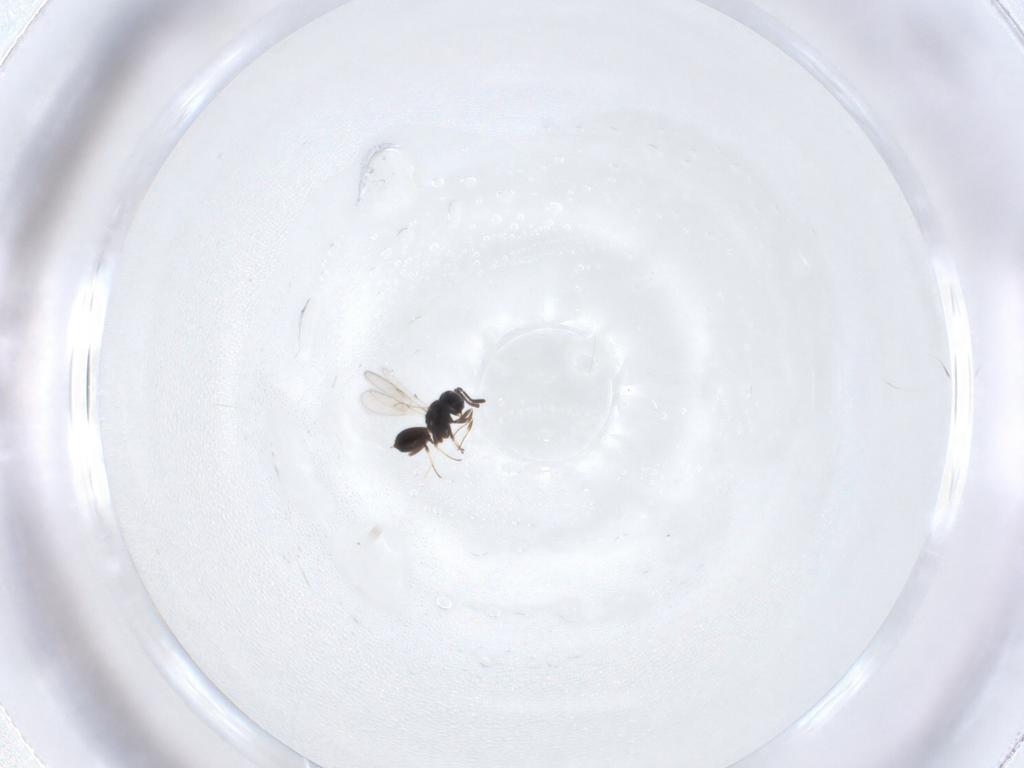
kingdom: Animalia
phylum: Arthropoda
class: Insecta
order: Hymenoptera
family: Scelionidae
